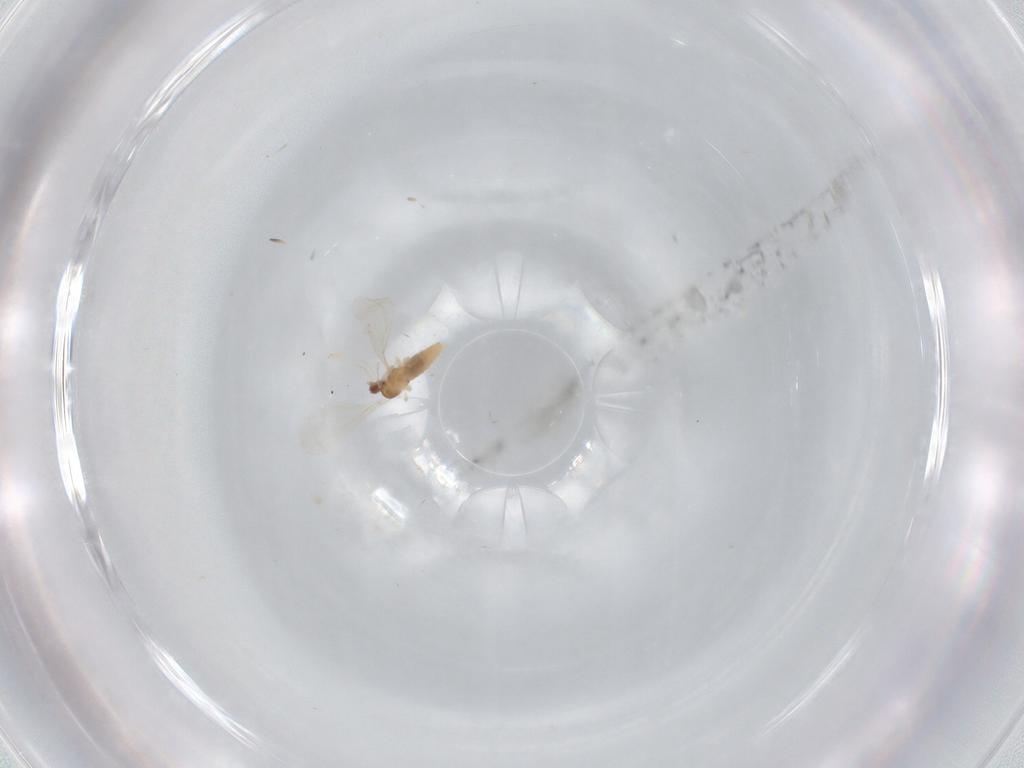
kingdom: Animalia
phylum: Arthropoda
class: Insecta
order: Diptera
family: Cecidomyiidae
